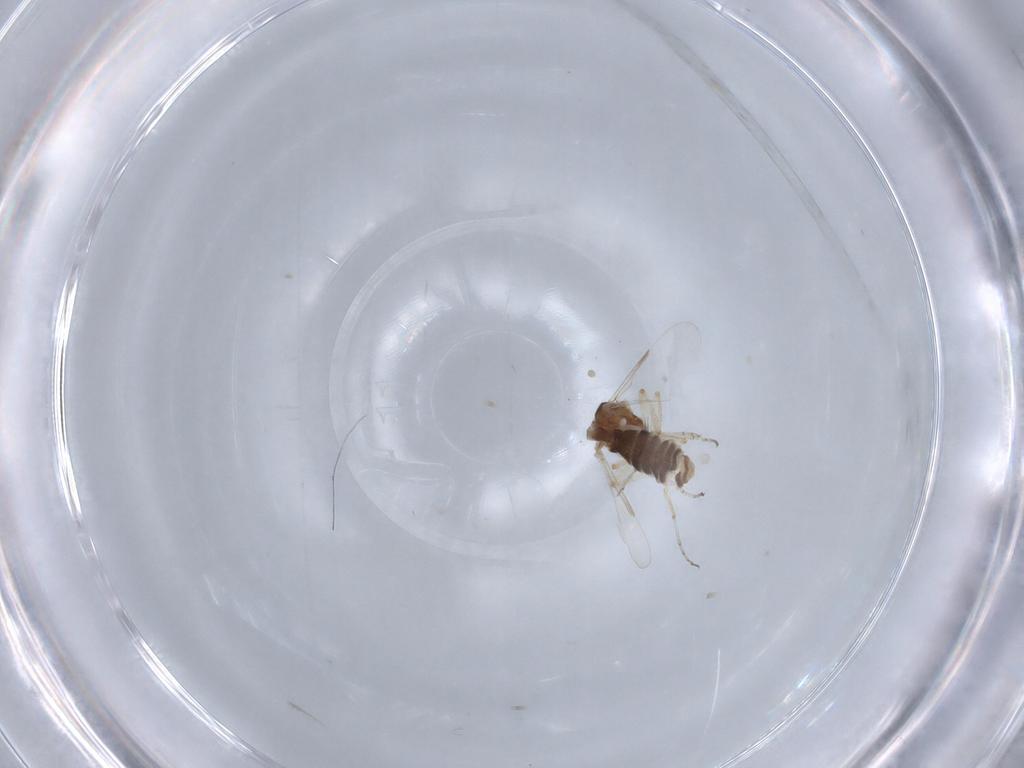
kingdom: Animalia
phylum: Arthropoda
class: Insecta
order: Diptera
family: Ceratopogonidae
